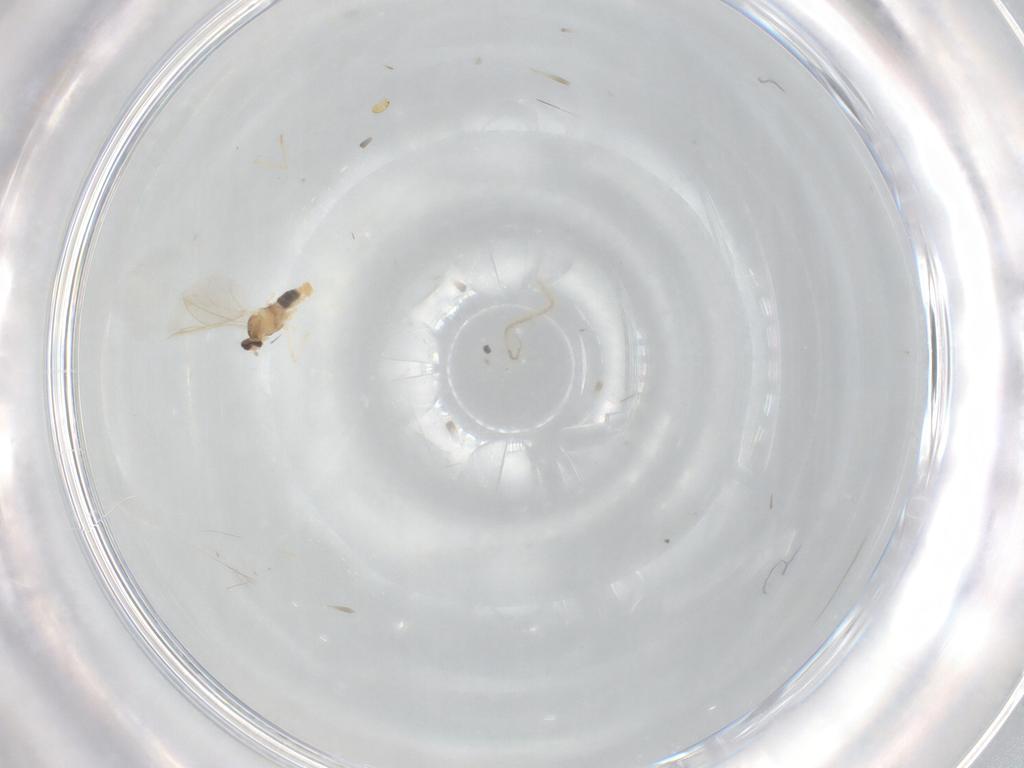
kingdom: Animalia
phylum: Arthropoda
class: Insecta
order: Diptera
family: Cecidomyiidae
